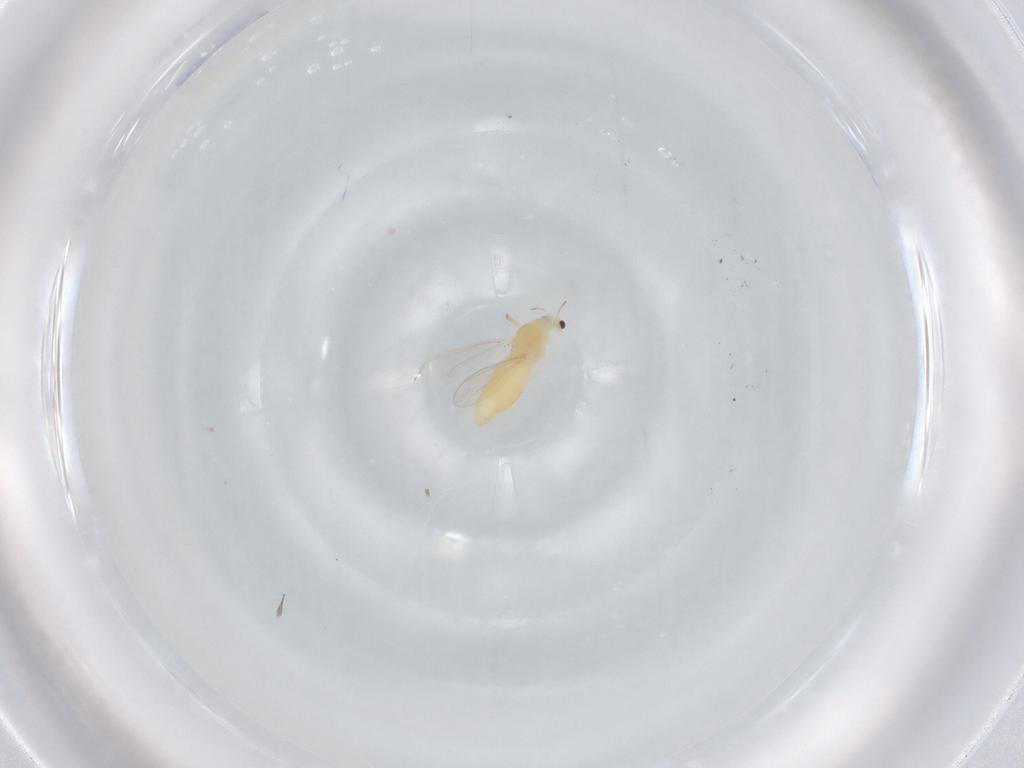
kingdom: Animalia
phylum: Arthropoda
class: Insecta
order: Diptera
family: Chironomidae
